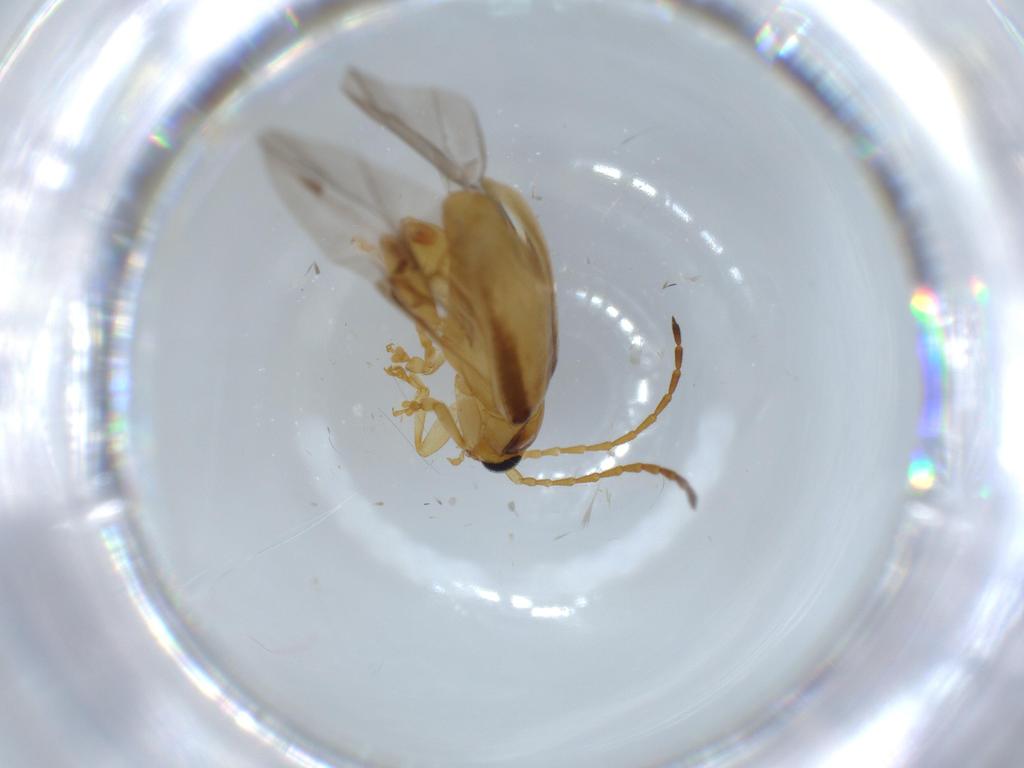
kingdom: Animalia
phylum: Arthropoda
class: Insecta
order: Coleoptera
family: Chrysomelidae
